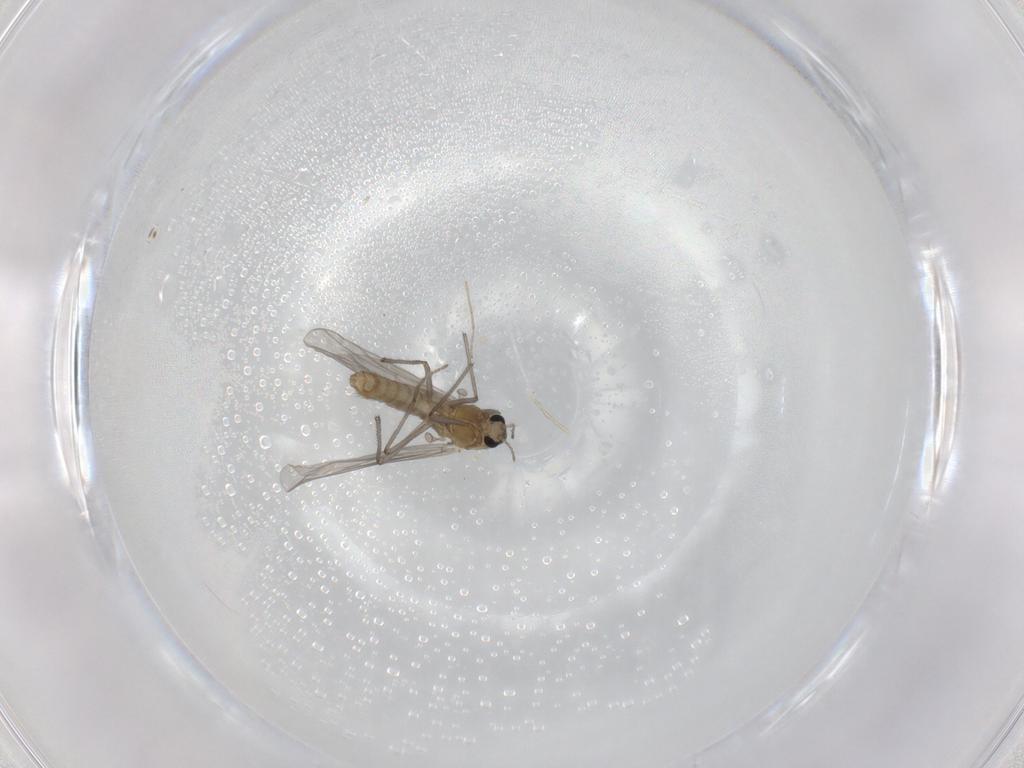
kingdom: Animalia
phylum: Arthropoda
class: Insecta
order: Diptera
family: Chironomidae
